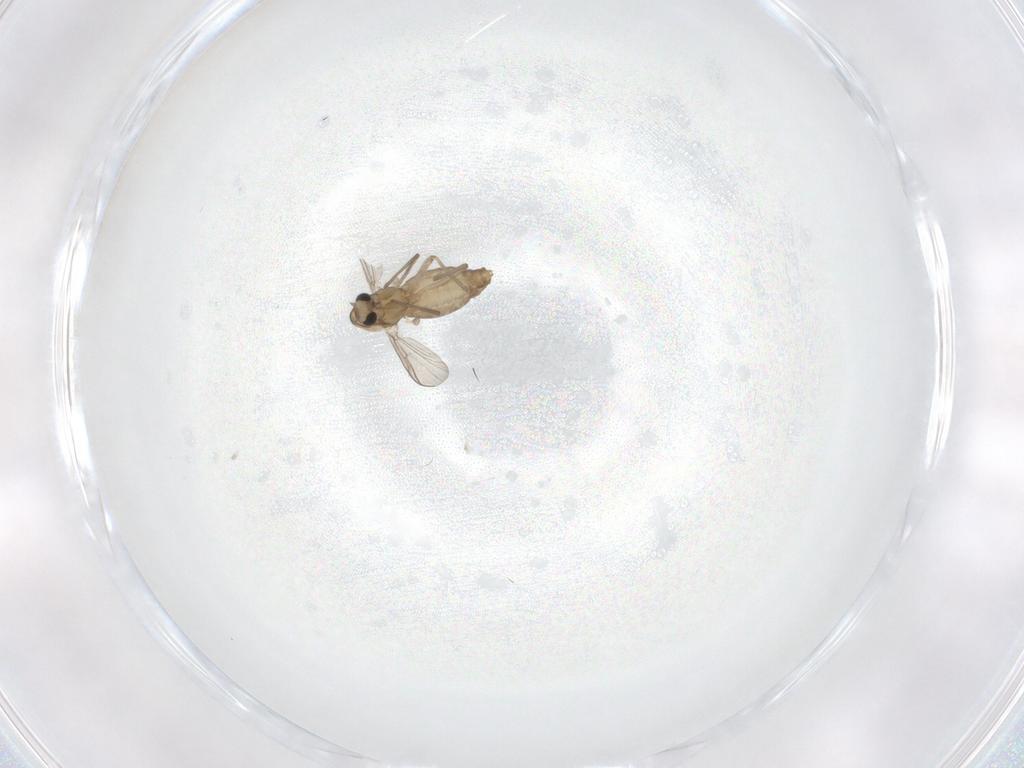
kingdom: Animalia
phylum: Arthropoda
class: Insecta
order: Diptera
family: Chironomidae
